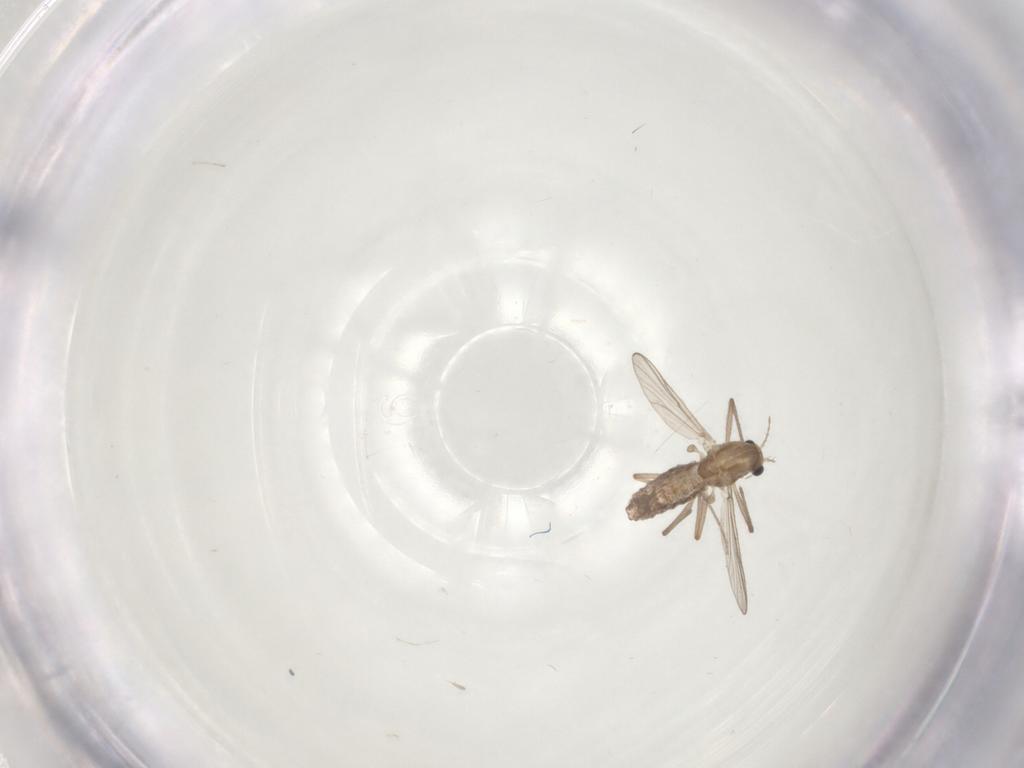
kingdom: Animalia
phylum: Arthropoda
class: Insecta
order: Diptera
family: Chironomidae
